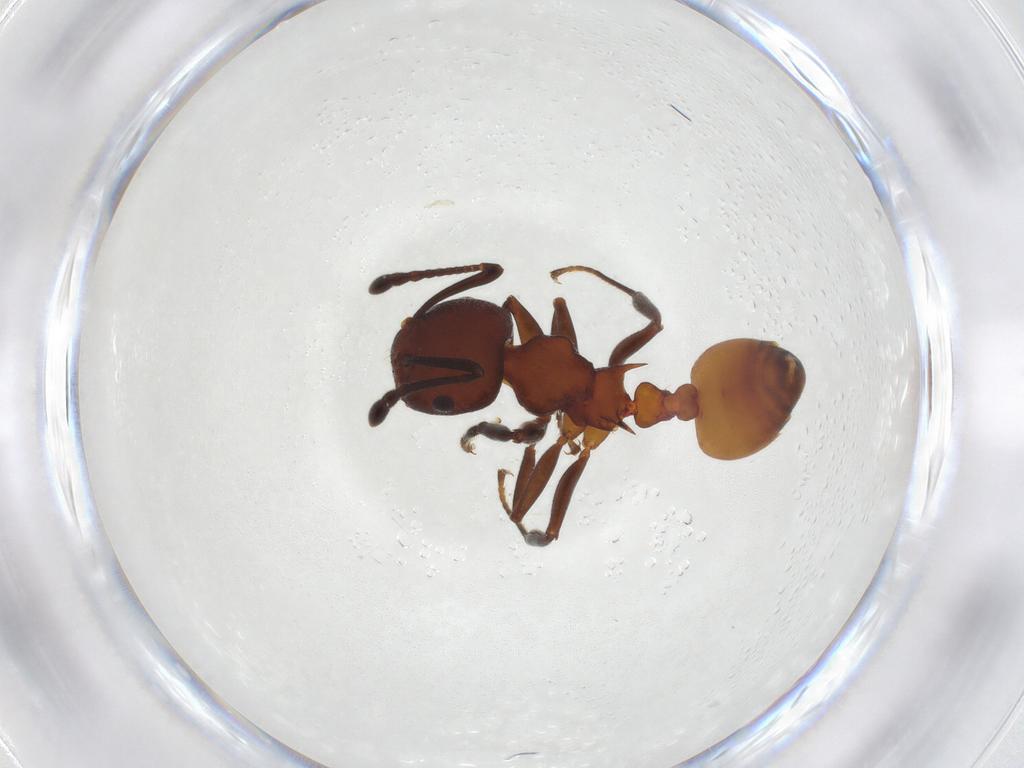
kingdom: Animalia
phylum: Arthropoda
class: Insecta
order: Hymenoptera
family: Formicidae
